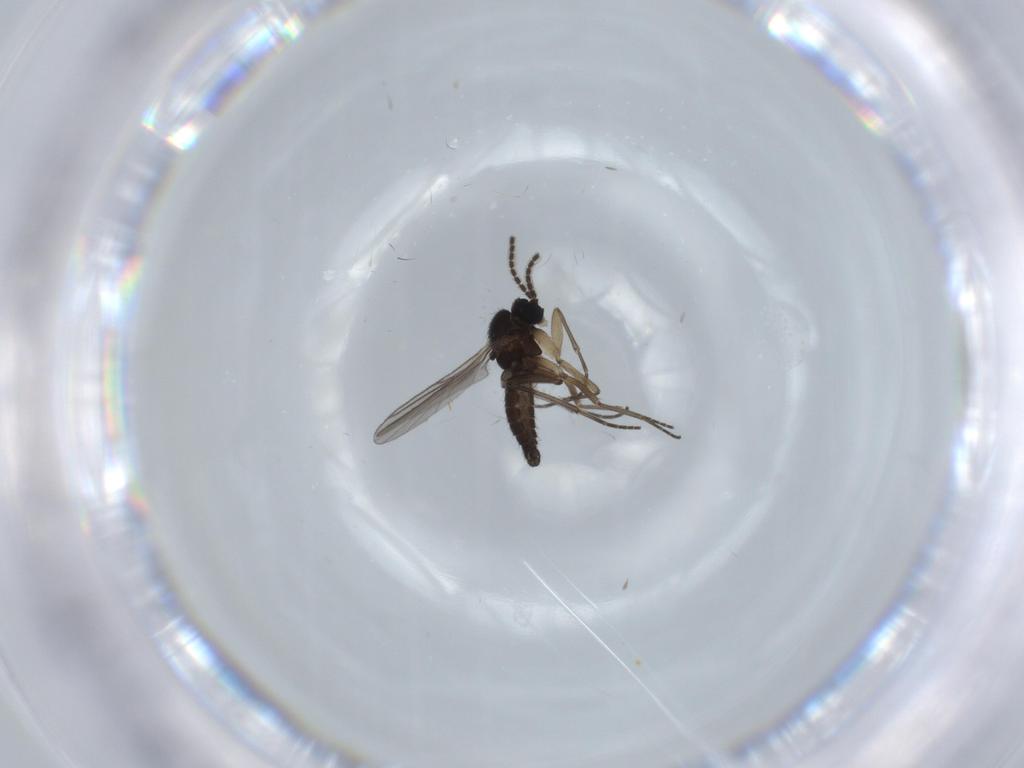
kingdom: Animalia
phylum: Arthropoda
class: Insecta
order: Diptera
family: Sciaridae
